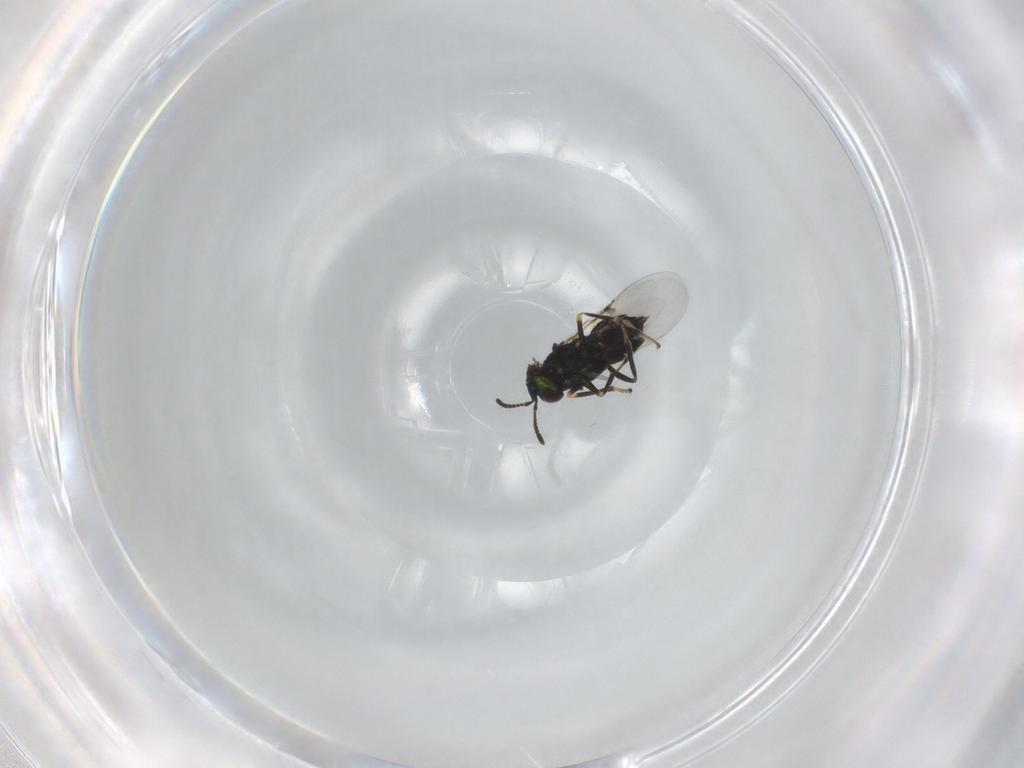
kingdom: Animalia
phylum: Arthropoda
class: Insecta
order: Hymenoptera
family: Encyrtidae
